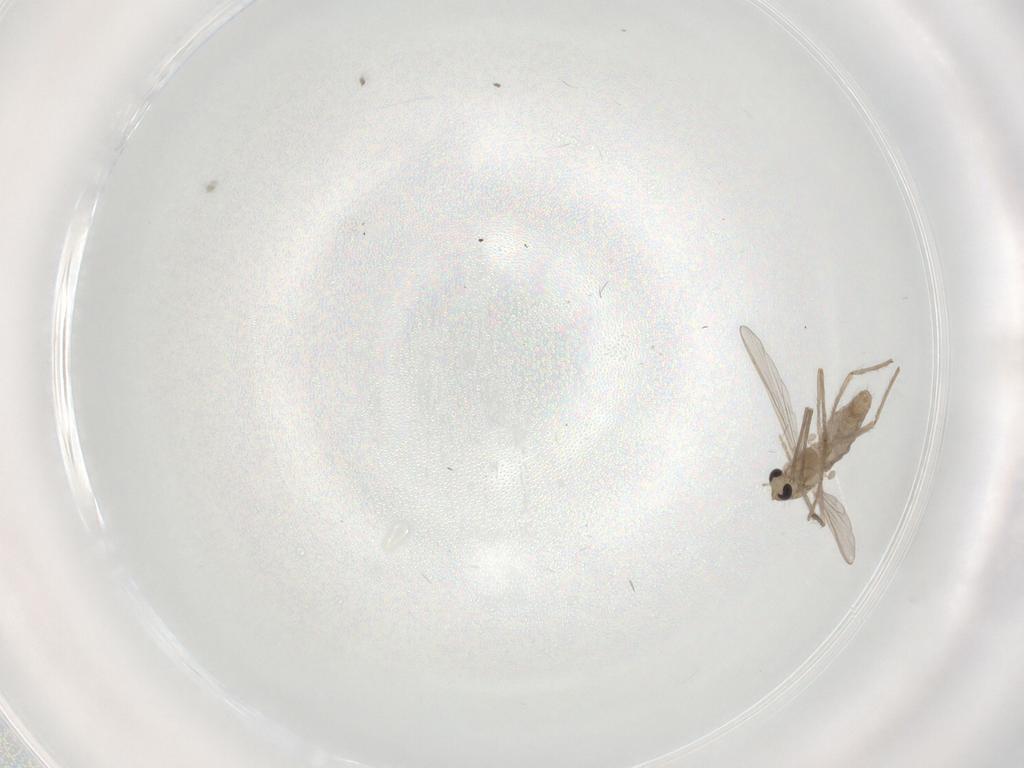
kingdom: Animalia
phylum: Arthropoda
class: Insecta
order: Diptera
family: Chironomidae
